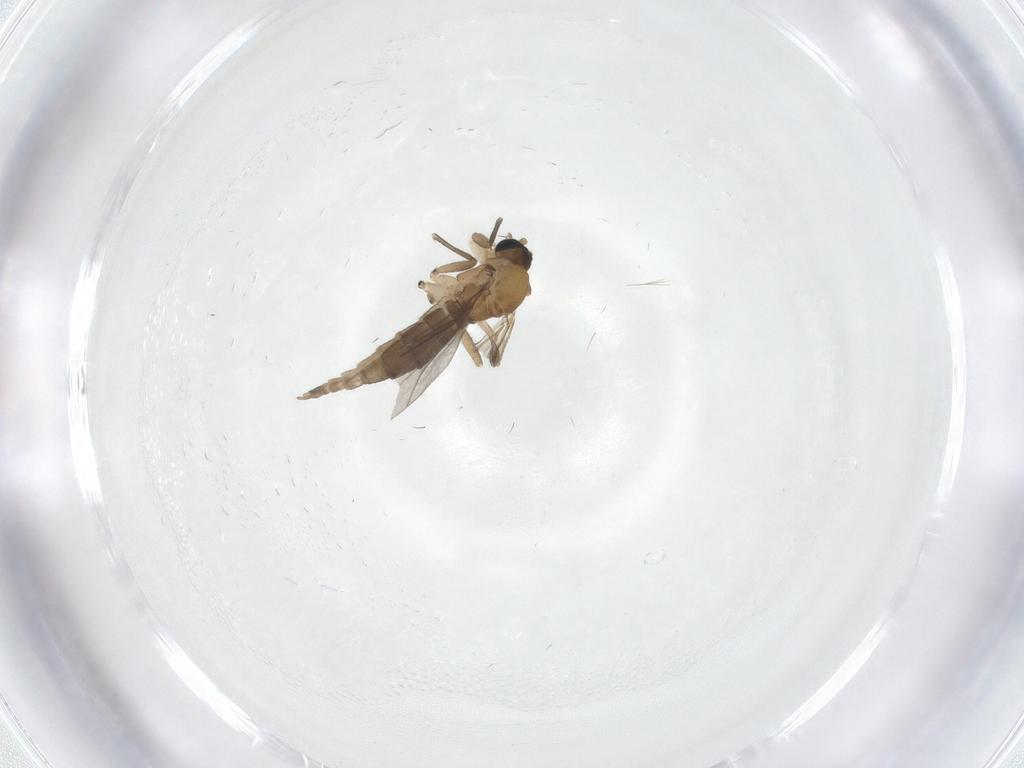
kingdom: Animalia
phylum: Arthropoda
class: Insecta
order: Diptera
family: Sciaridae
